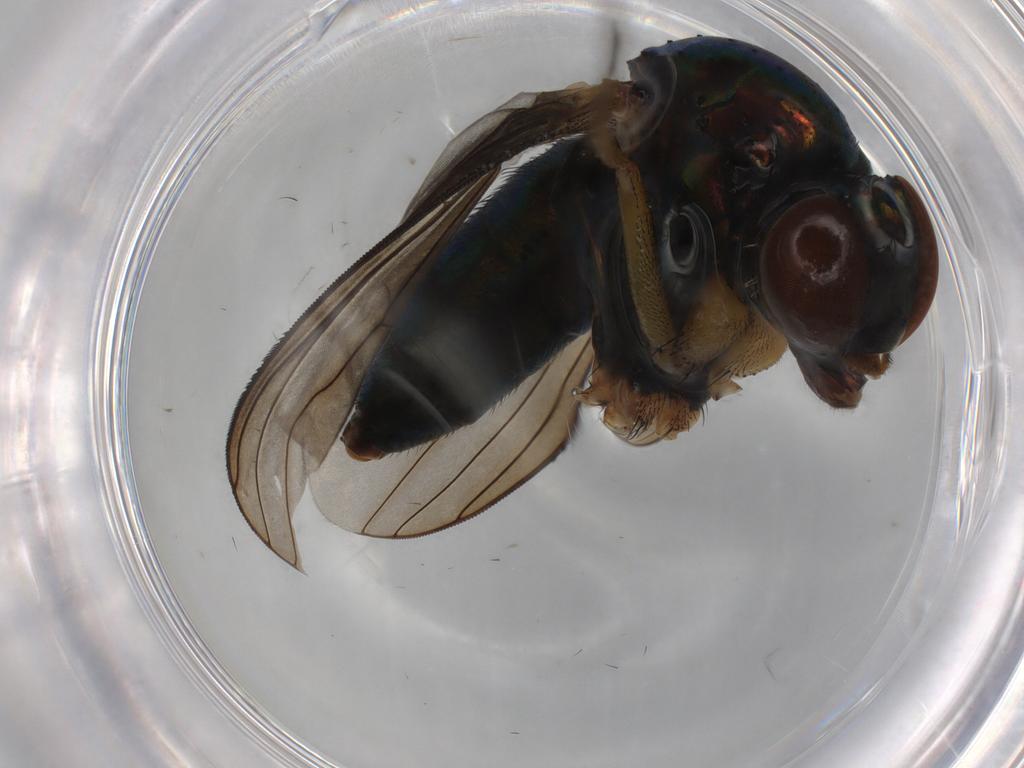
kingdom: Animalia
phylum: Arthropoda
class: Insecta
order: Diptera
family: Dolichopodidae
